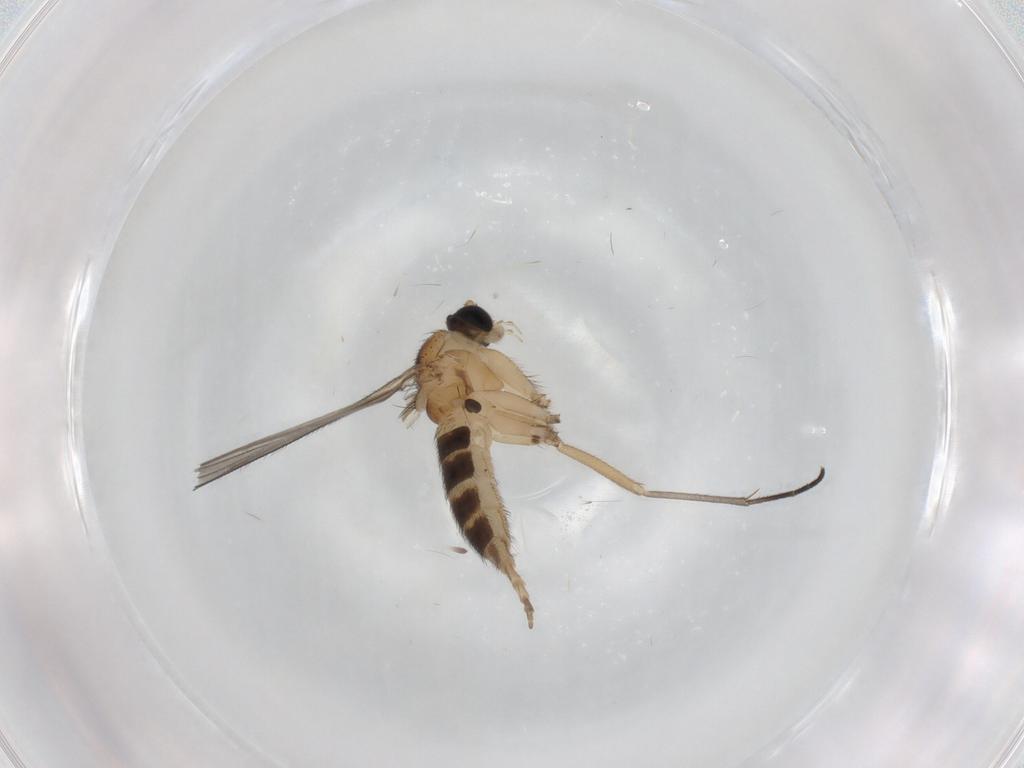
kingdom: Animalia
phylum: Arthropoda
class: Insecta
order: Diptera
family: Sciaridae
